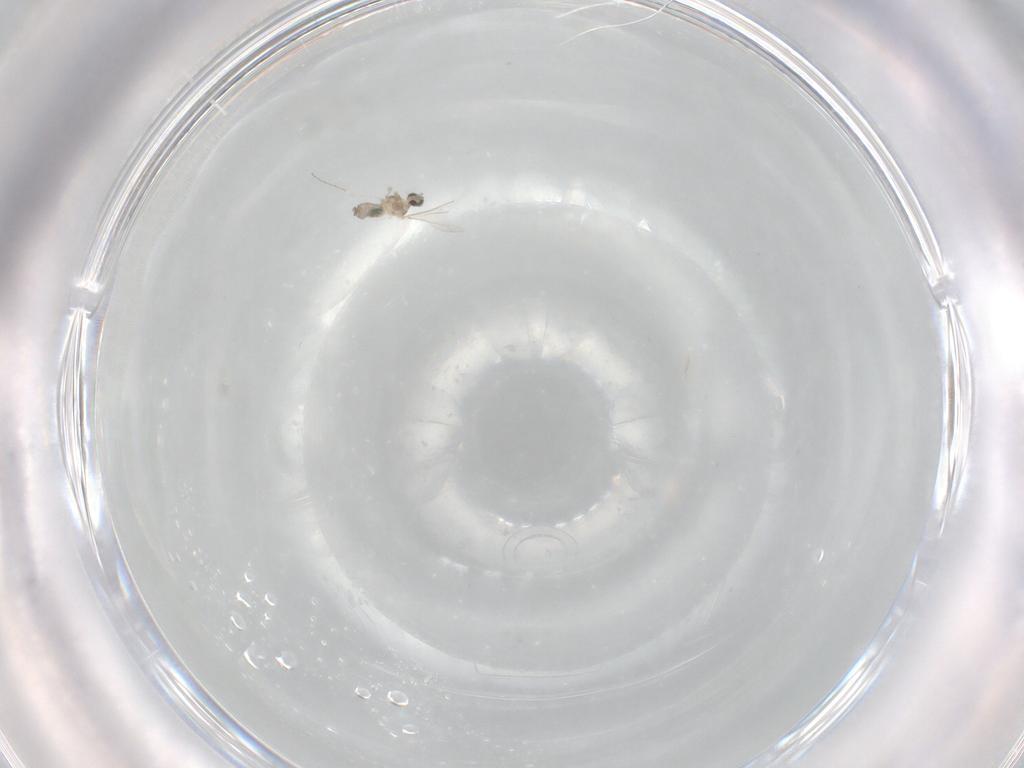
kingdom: Animalia
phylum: Arthropoda
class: Insecta
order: Diptera
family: Cecidomyiidae
